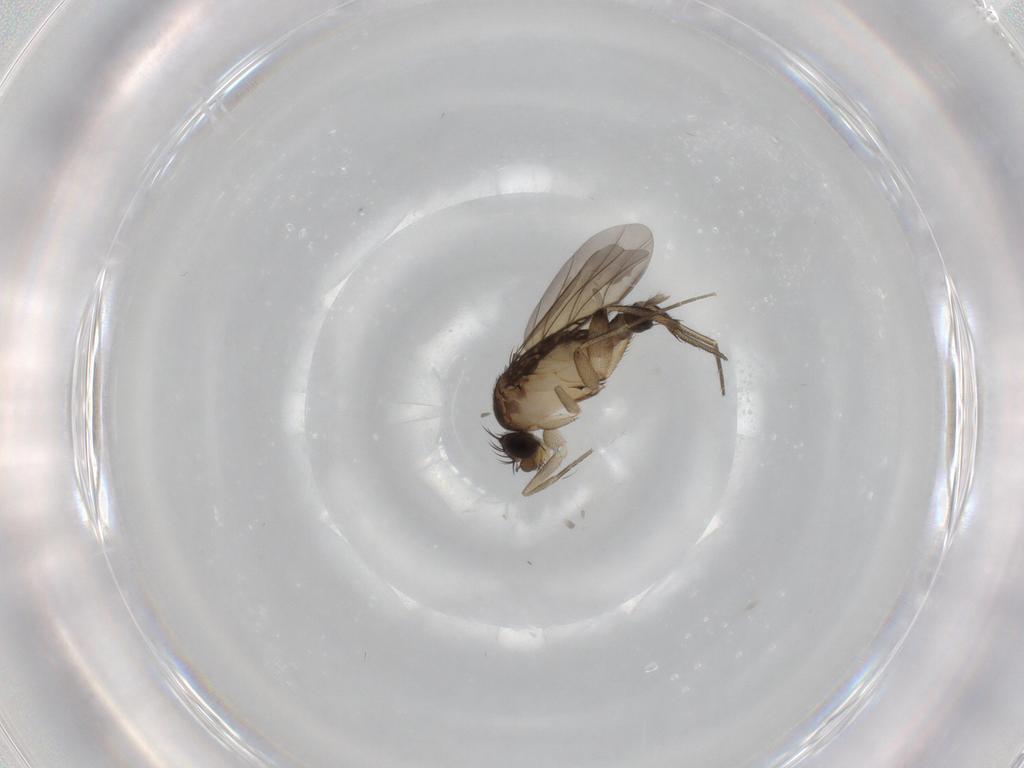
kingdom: Animalia
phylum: Arthropoda
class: Insecta
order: Diptera
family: Phoridae
